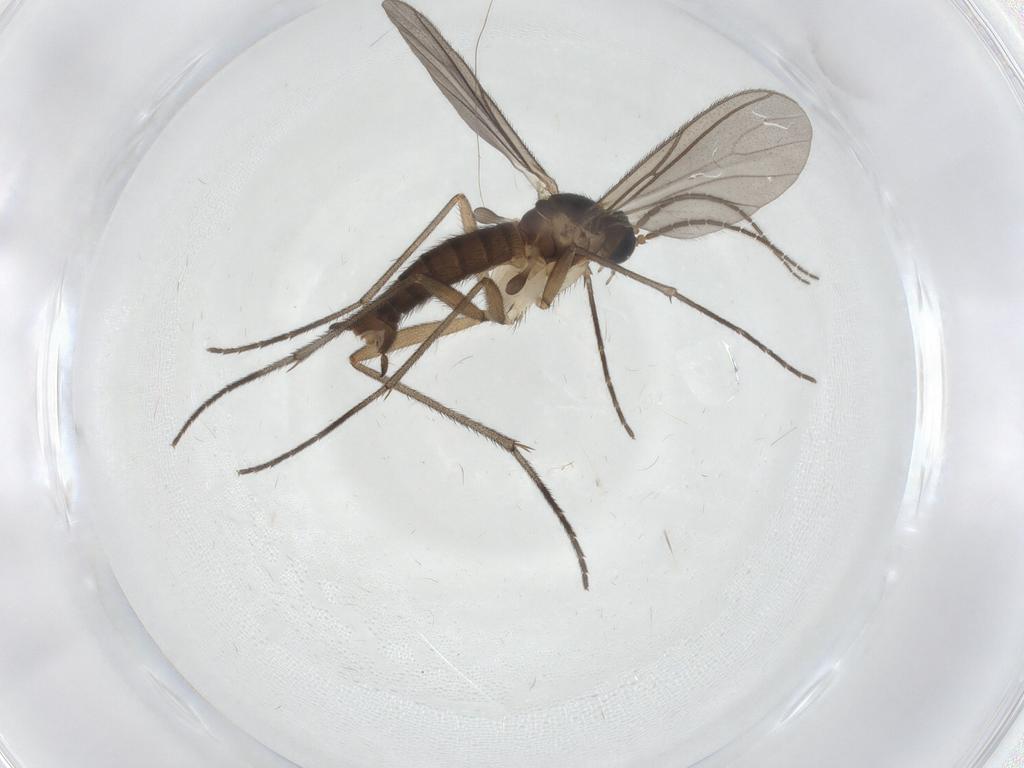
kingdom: Animalia
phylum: Arthropoda
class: Insecta
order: Diptera
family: Sciaridae
